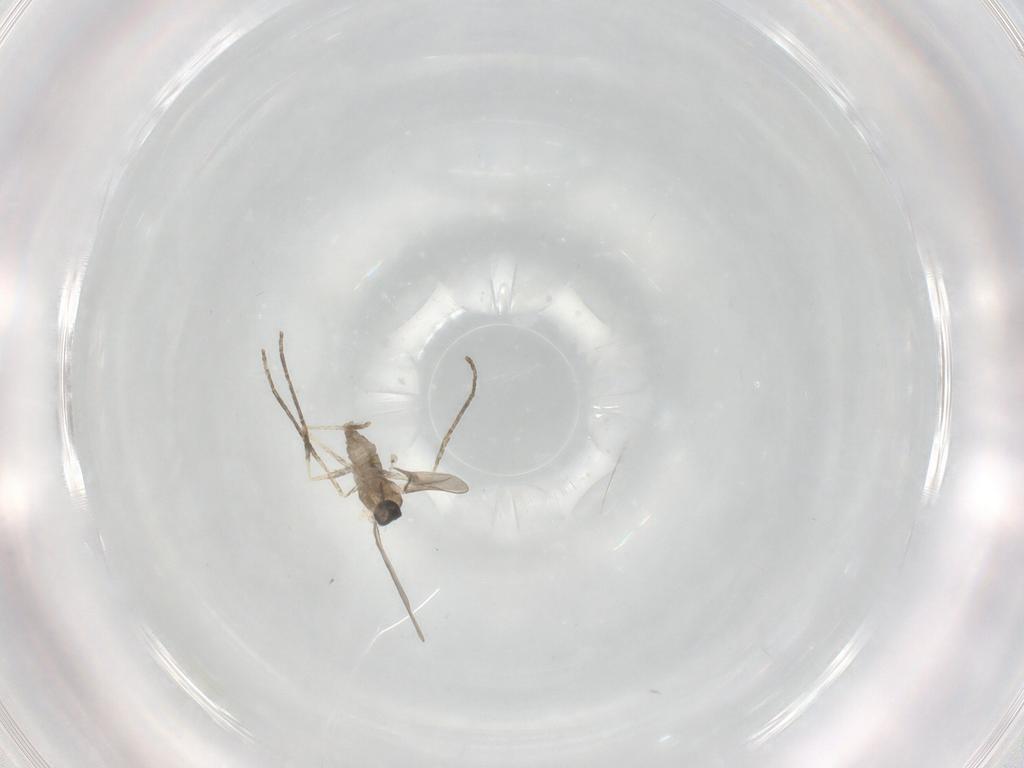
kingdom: Animalia
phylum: Arthropoda
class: Insecta
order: Diptera
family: Cecidomyiidae
